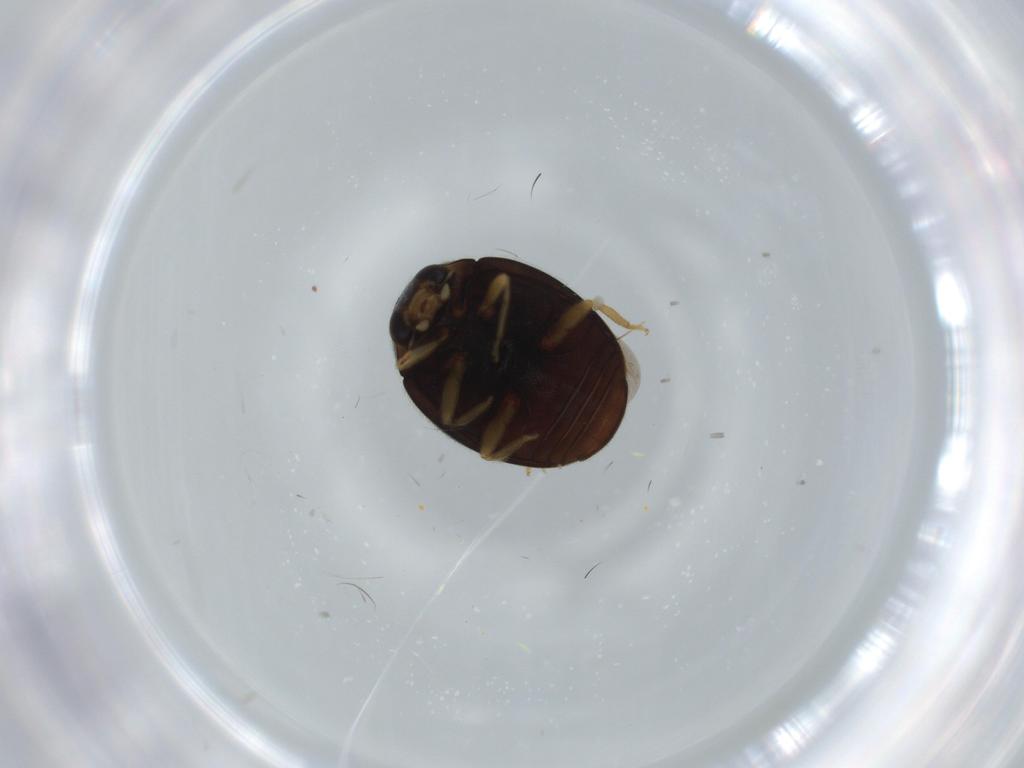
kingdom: Animalia
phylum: Arthropoda
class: Insecta
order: Coleoptera
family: Coccinellidae
